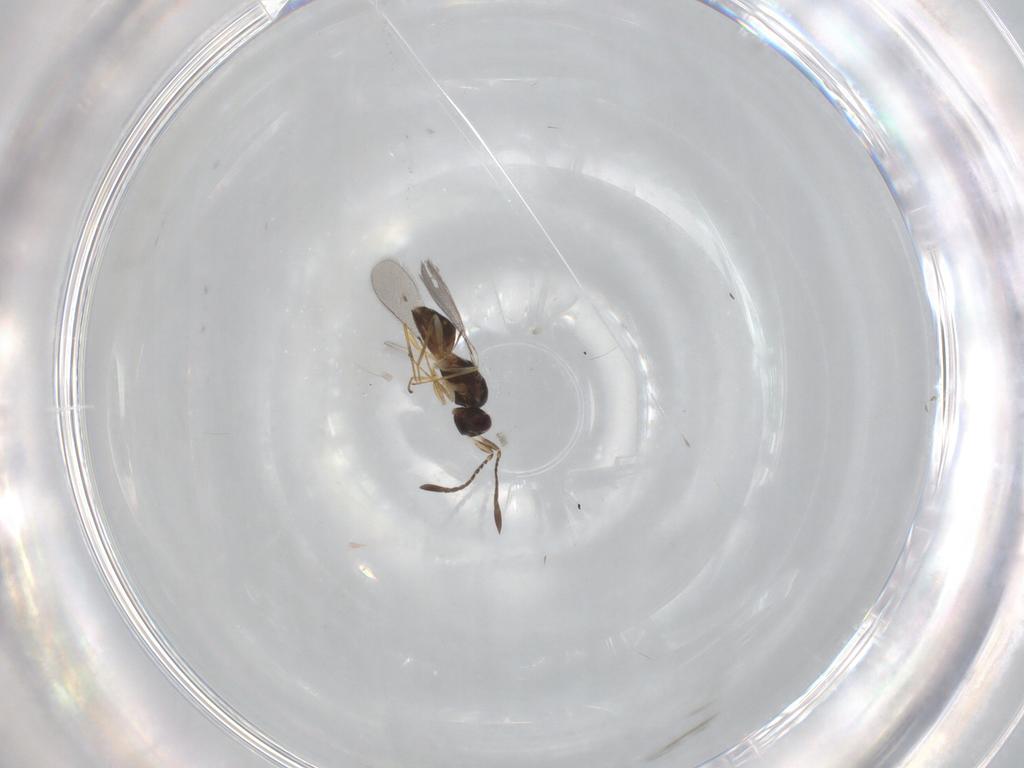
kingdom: Animalia
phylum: Arthropoda
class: Insecta
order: Hymenoptera
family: Mymaridae
